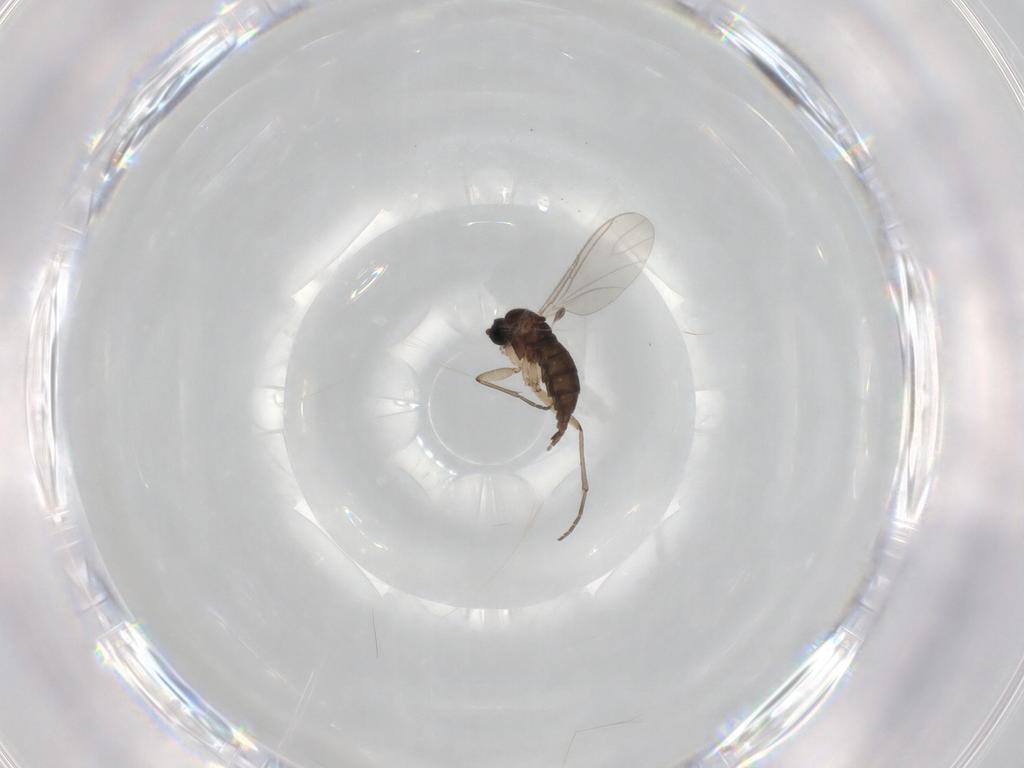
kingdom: Animalia
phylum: Arthropoda
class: Insecta
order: Diptera
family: Sciaridae
